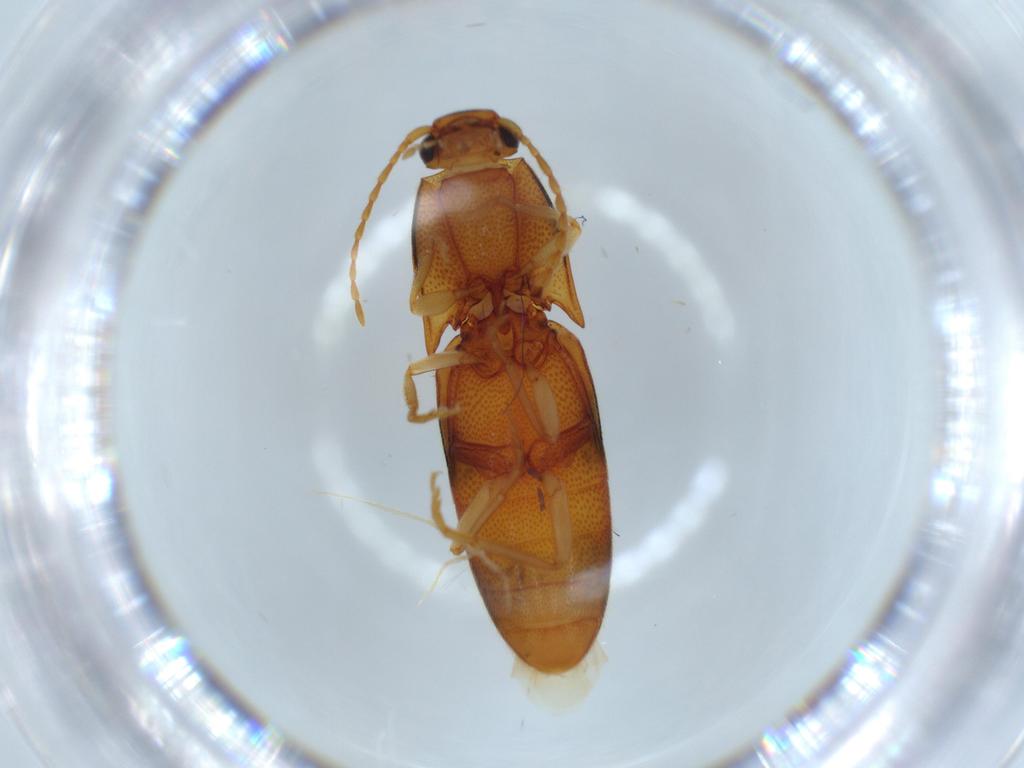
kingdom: Animalia
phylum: Arthropoda
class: Insecta
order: Coleoptera
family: Elateridae
